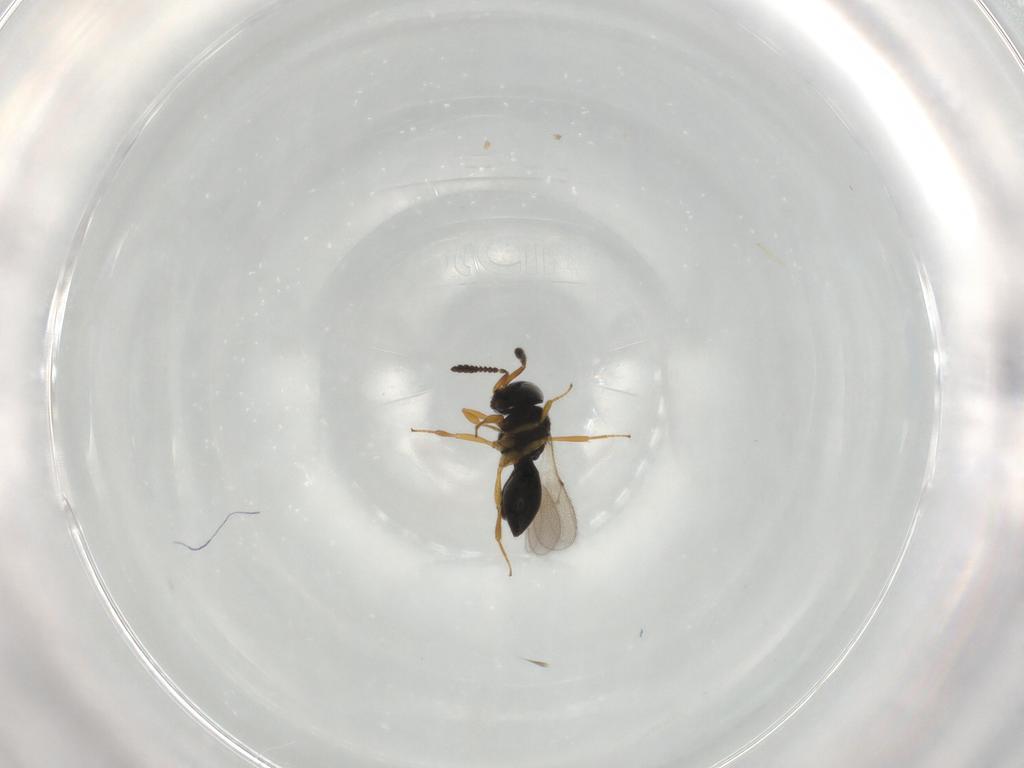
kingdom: Animalia
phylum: Arthropoda
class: Insecta
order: Hymenoptera
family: Scelionidae
